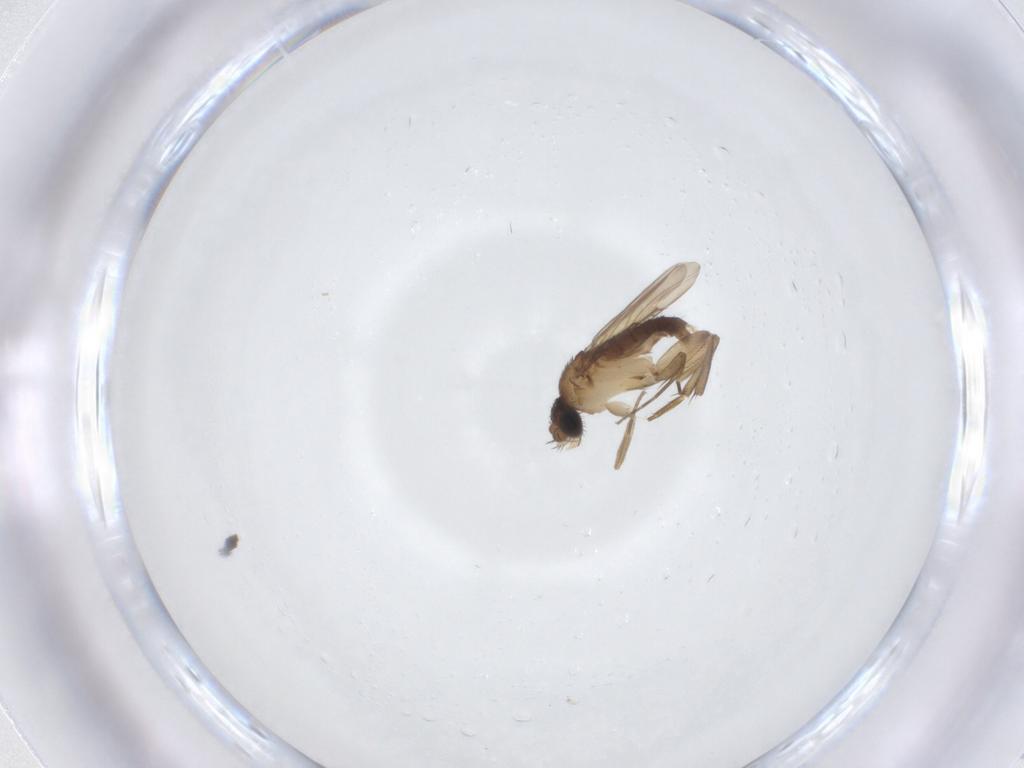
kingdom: Animalia
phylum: Arthropoda
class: Insecta
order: Diptera
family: Phoridae
